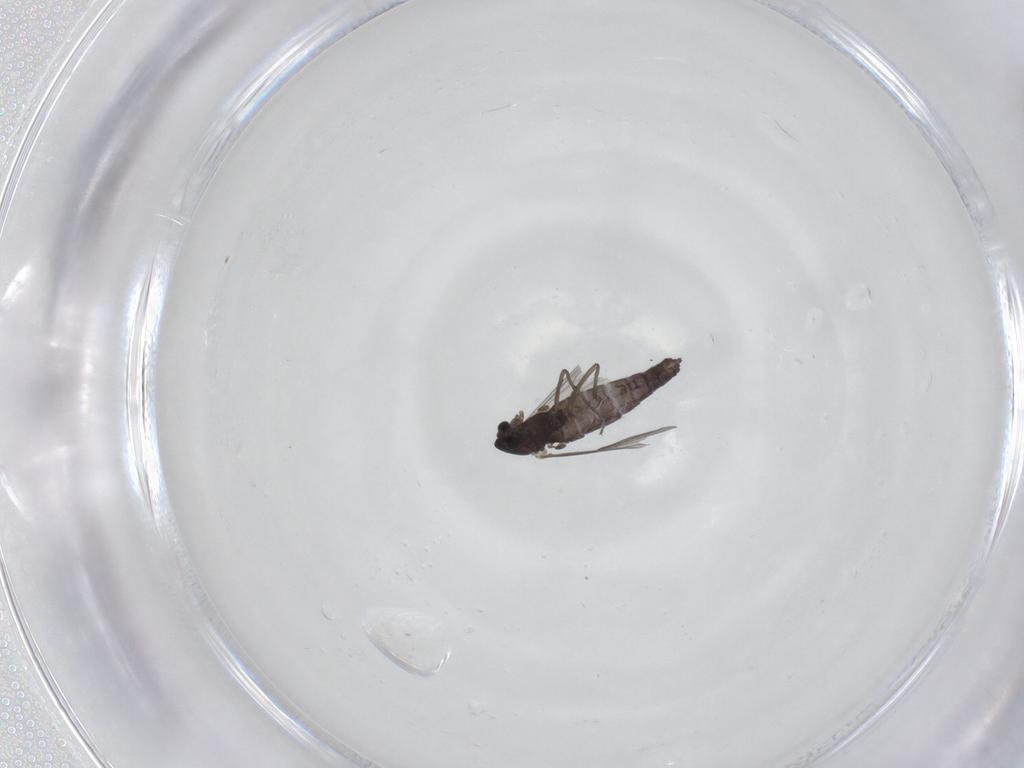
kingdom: Animalia
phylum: Arthropoda
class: Insecta
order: Diptera
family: Chironomidae
